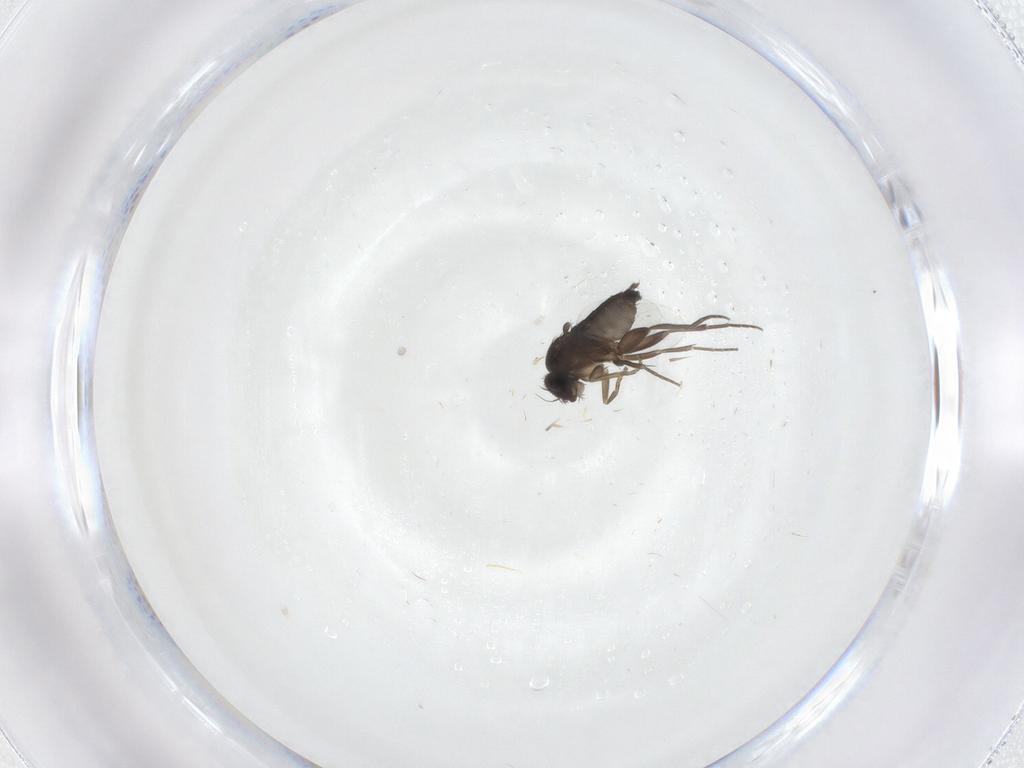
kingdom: Animalia
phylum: Arthropoda
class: Insecta
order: Diptera
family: Phoridae
